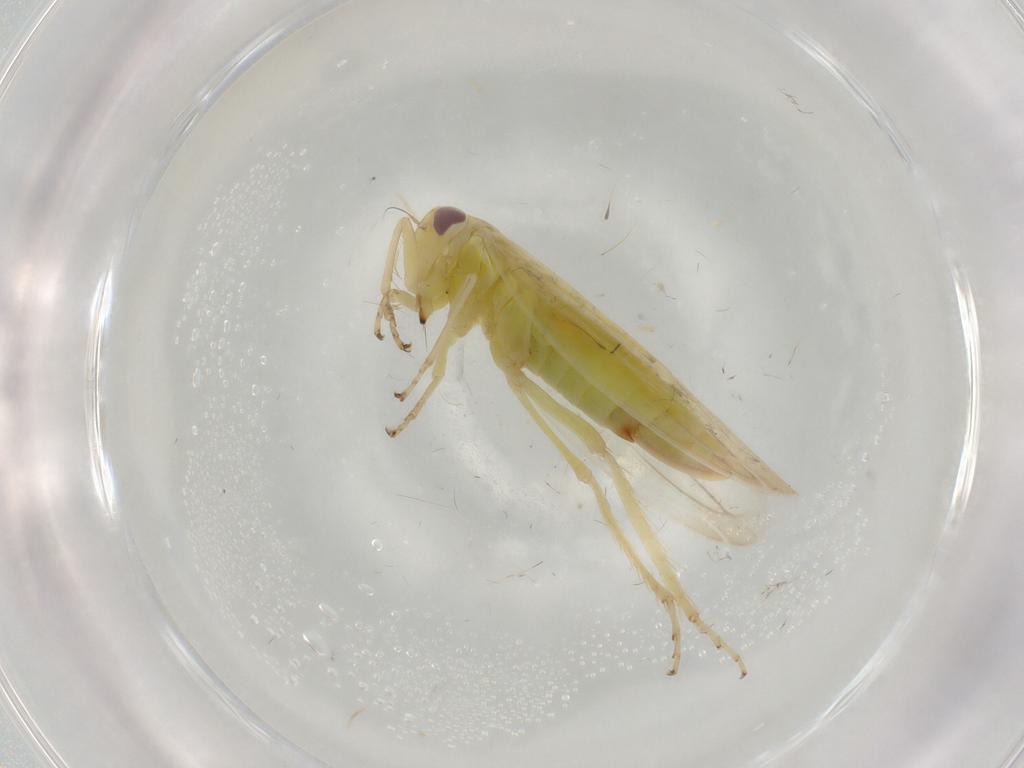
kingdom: Animalia
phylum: Arthropoda
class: Insecta
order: Hemiptera
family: Cicadellidae
